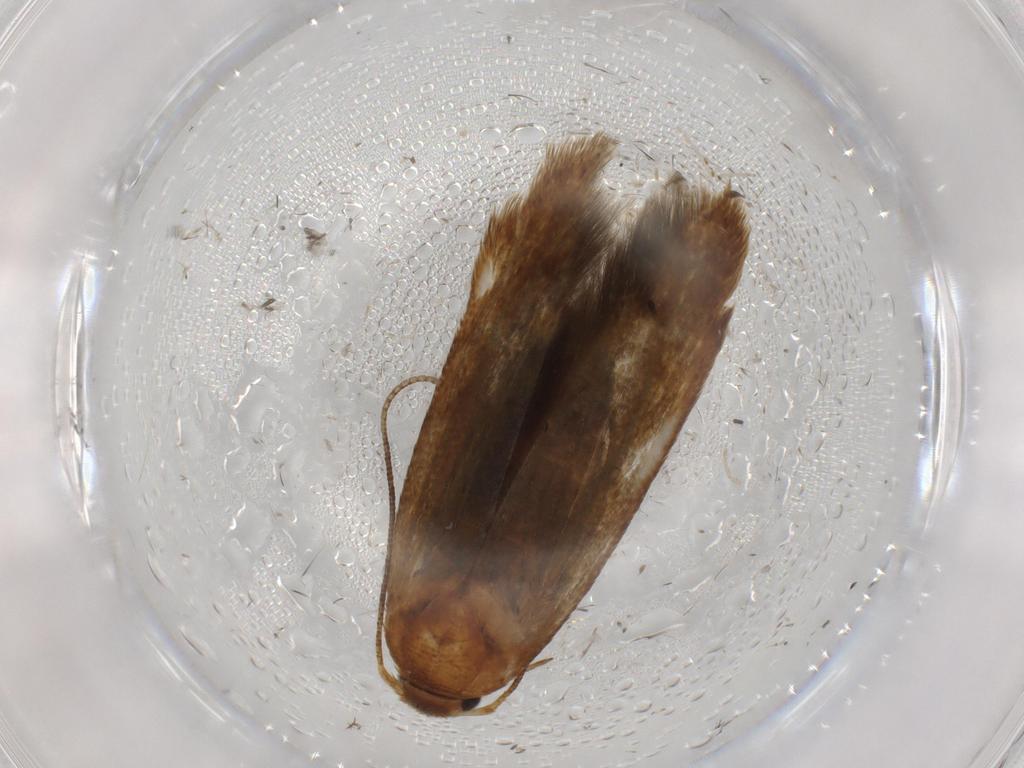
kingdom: Animalia
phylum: Arthropoda
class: Insecta
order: Lepidoptera
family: Blastobasidae
